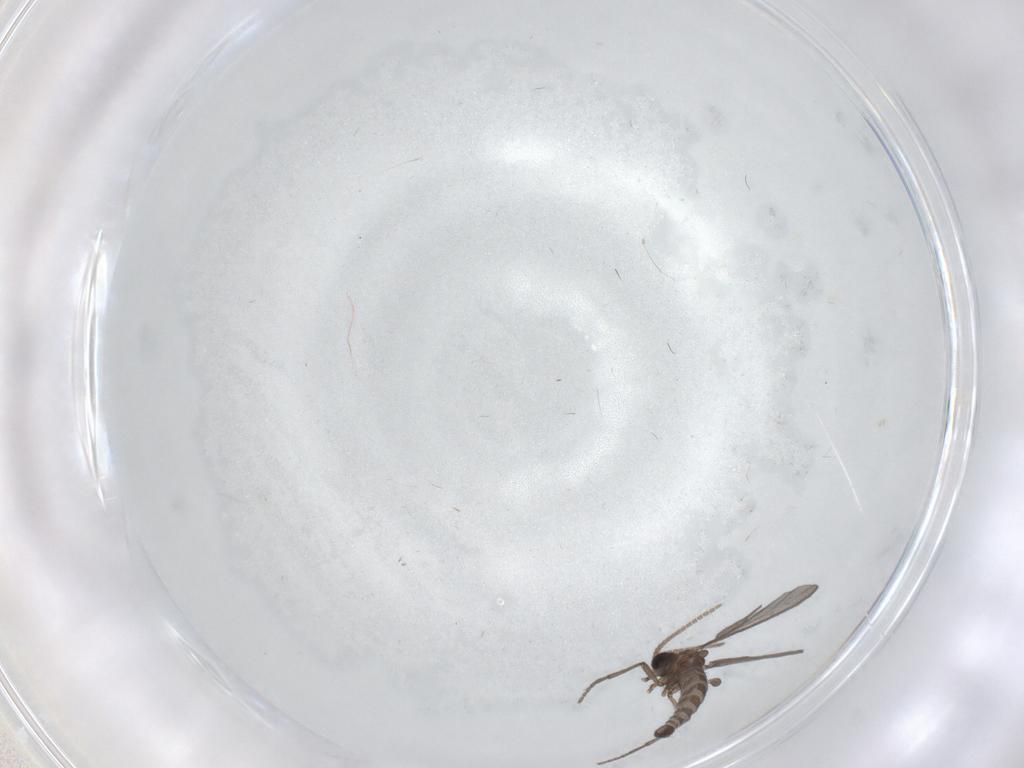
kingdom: Animalia
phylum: Arthropoda
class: Insecta
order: Diptera
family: Sciaridae
